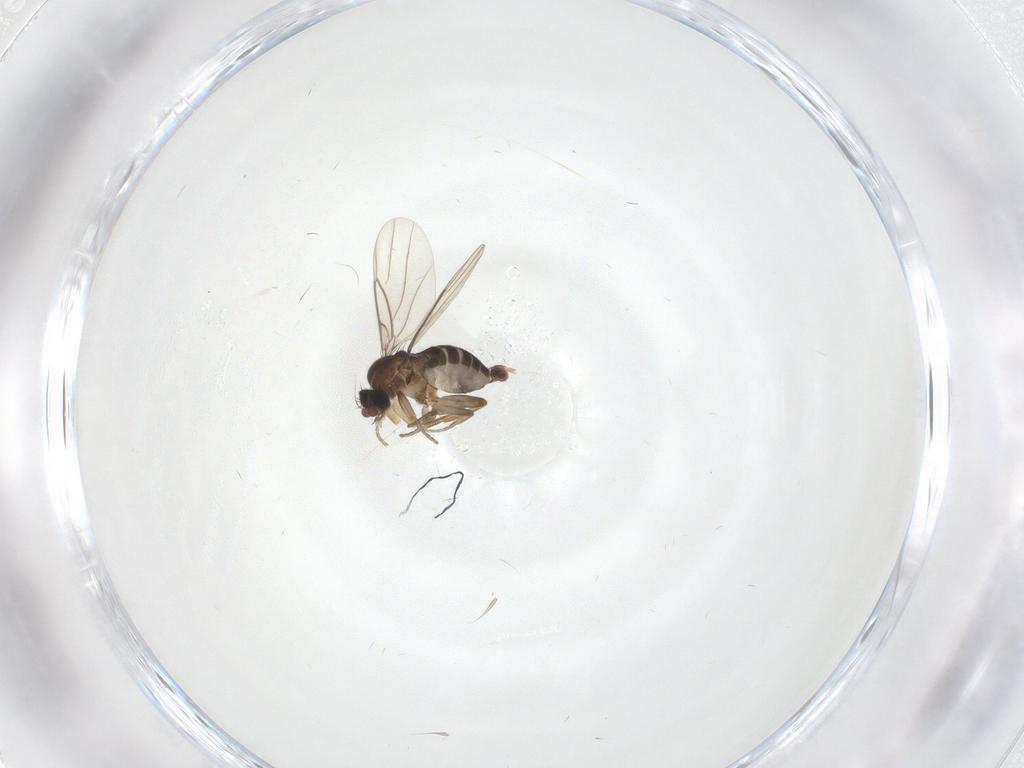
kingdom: Animalia
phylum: Arthropoda
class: Insecta
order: Diptera
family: Phoridae
